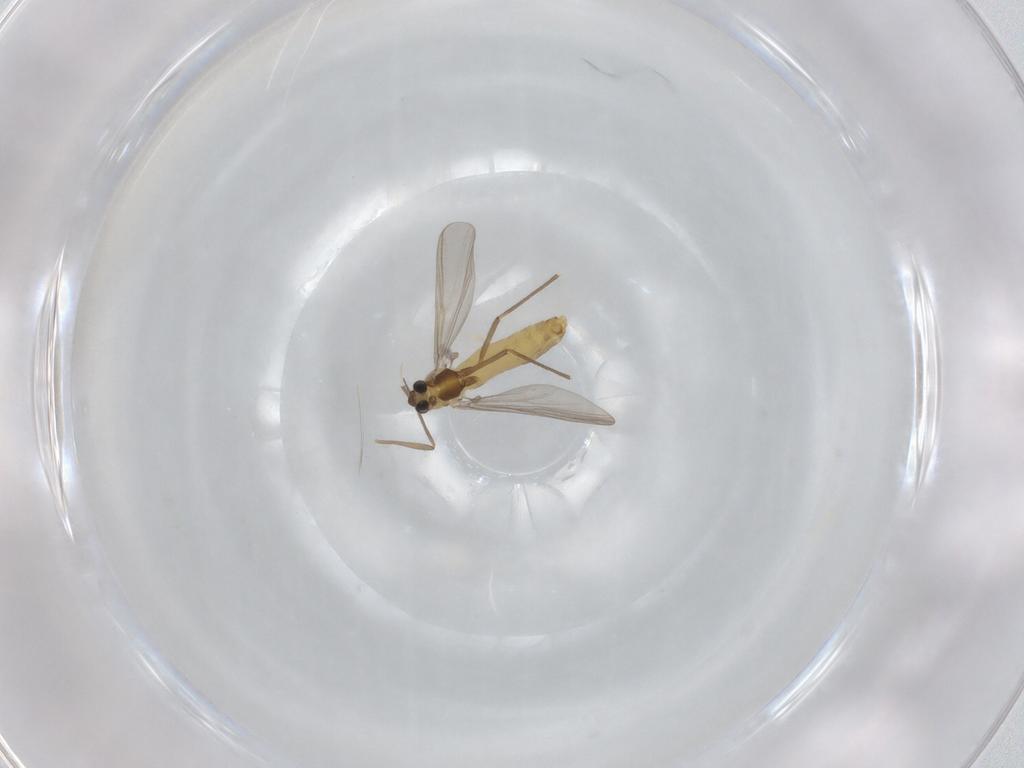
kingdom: Animalia
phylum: Arthropoda
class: Insecta
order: Diptera
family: Chironomidae
